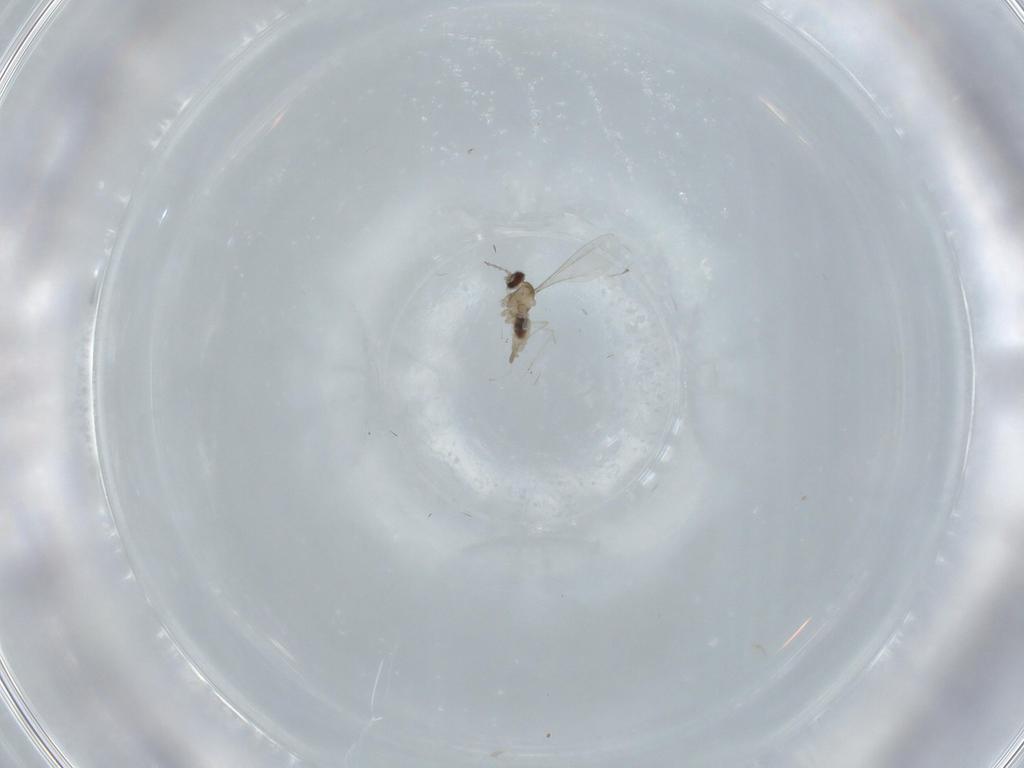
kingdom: Animalia
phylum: Arthropoda
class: Insecta
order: Diptera
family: Cecidomyiidae
